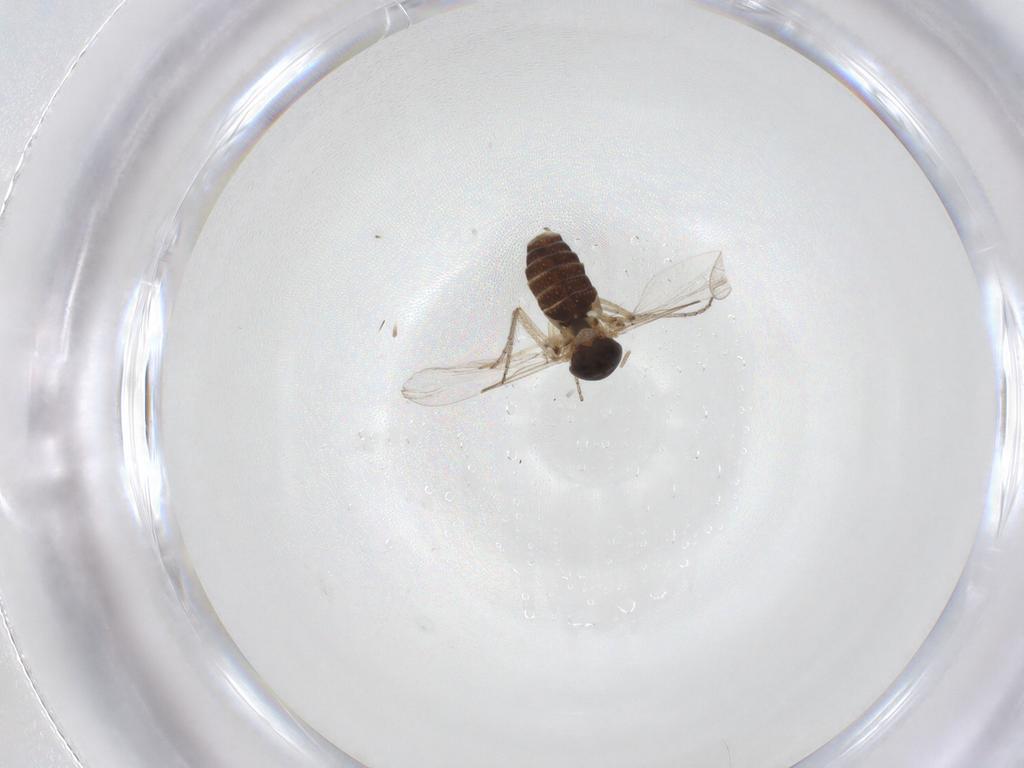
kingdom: Animalia
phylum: Arthropoda
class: Insecta
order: Diptera
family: Ceratopogonidae
